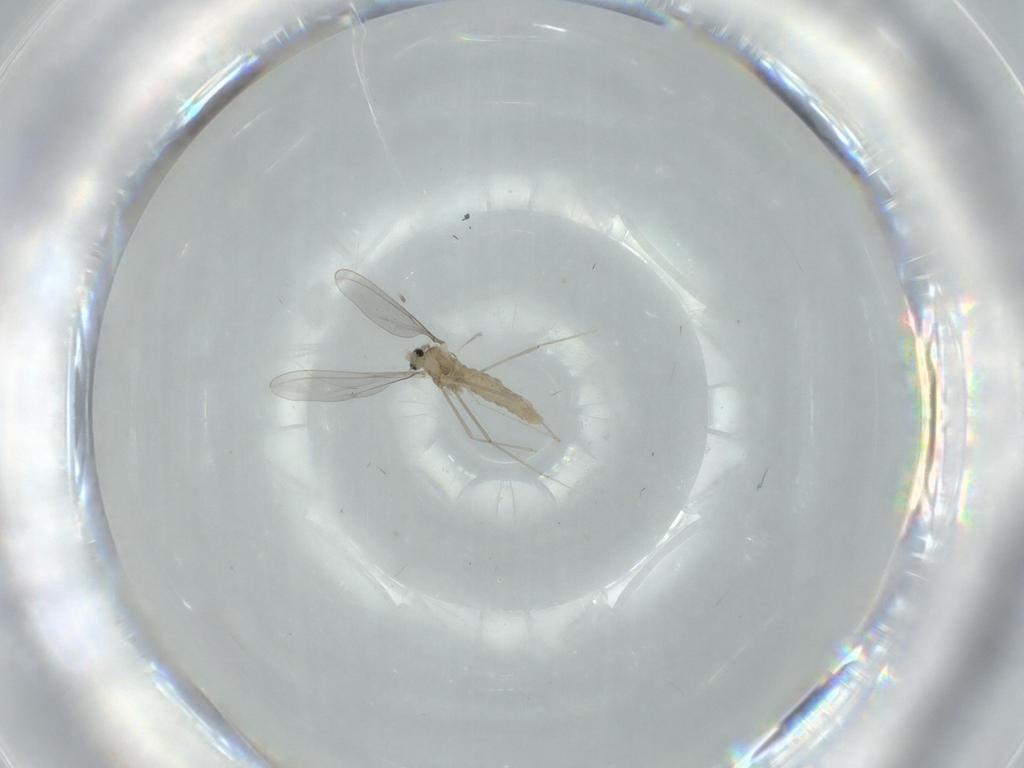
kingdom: Animalia
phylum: Arthropoda
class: Insecta
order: Diptera
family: Cecidomyiidae
